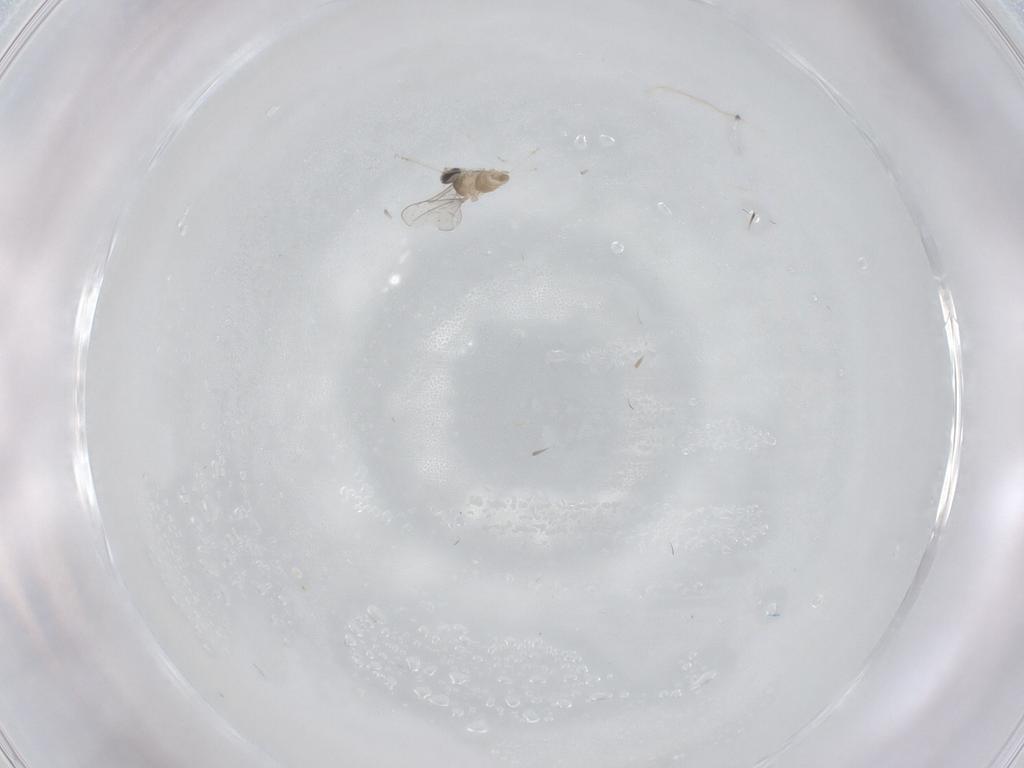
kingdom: Animalia
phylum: Arthropoda
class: Insecta
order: Diptera
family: Cecidomyiidae
